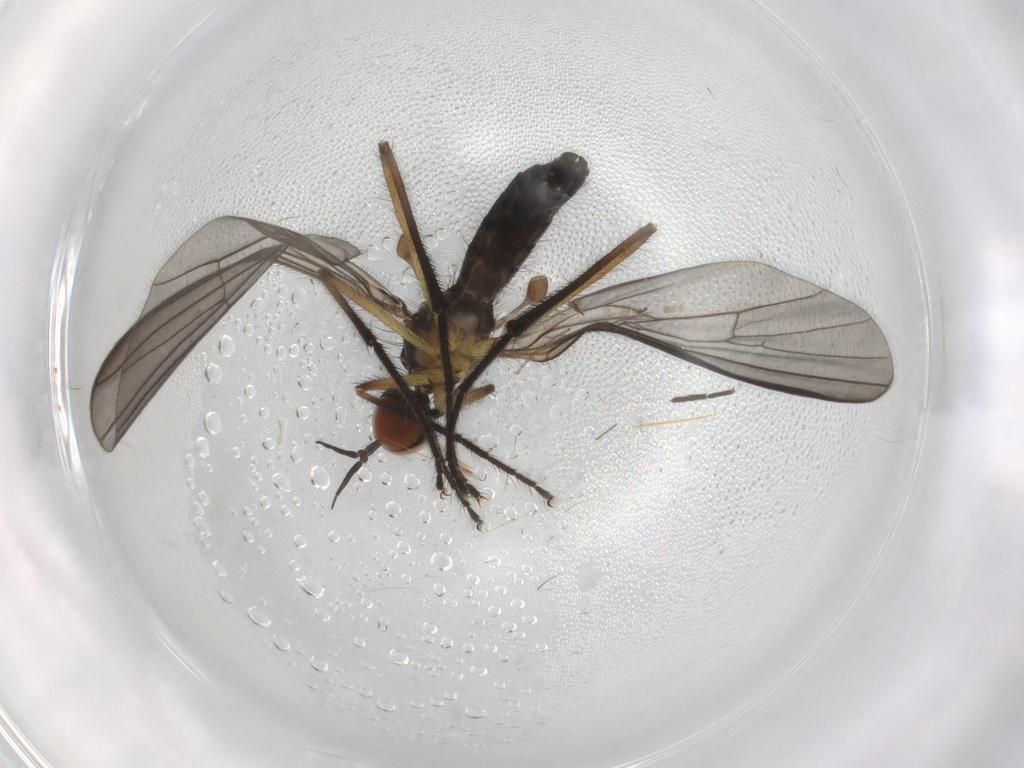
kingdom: Animalia
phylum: Arthropoda
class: Insecta
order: Diptera
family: Empididae
